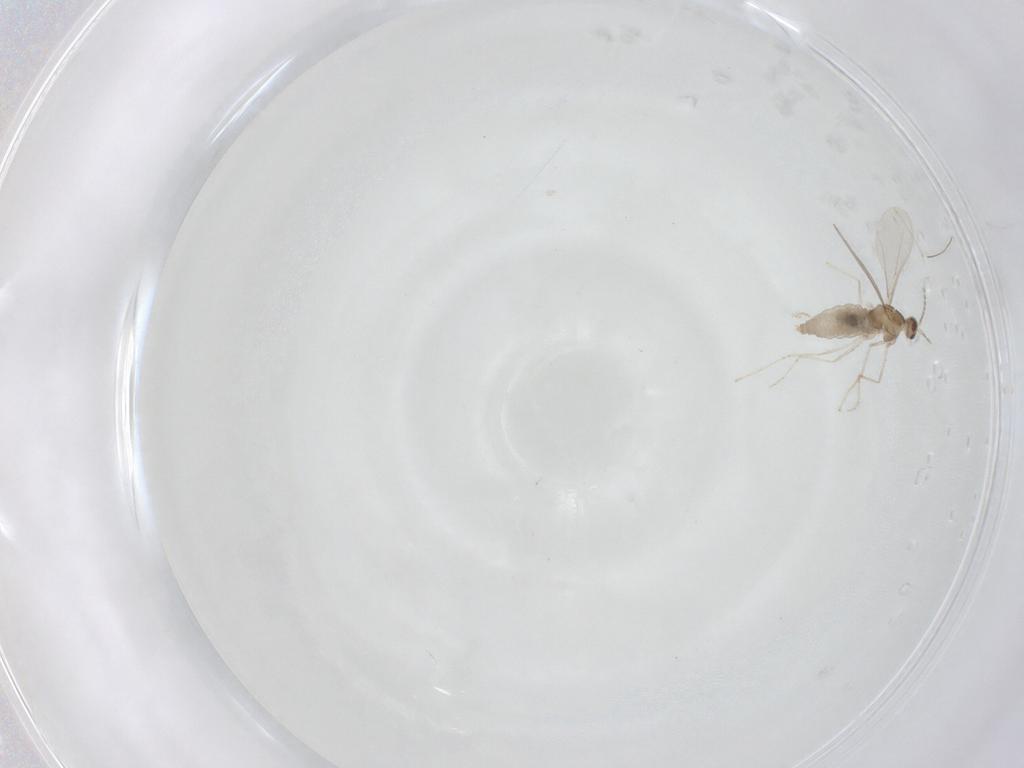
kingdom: Animalia
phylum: Arthropoda
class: Insecta
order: Diptera
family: Cecidomyiidae
